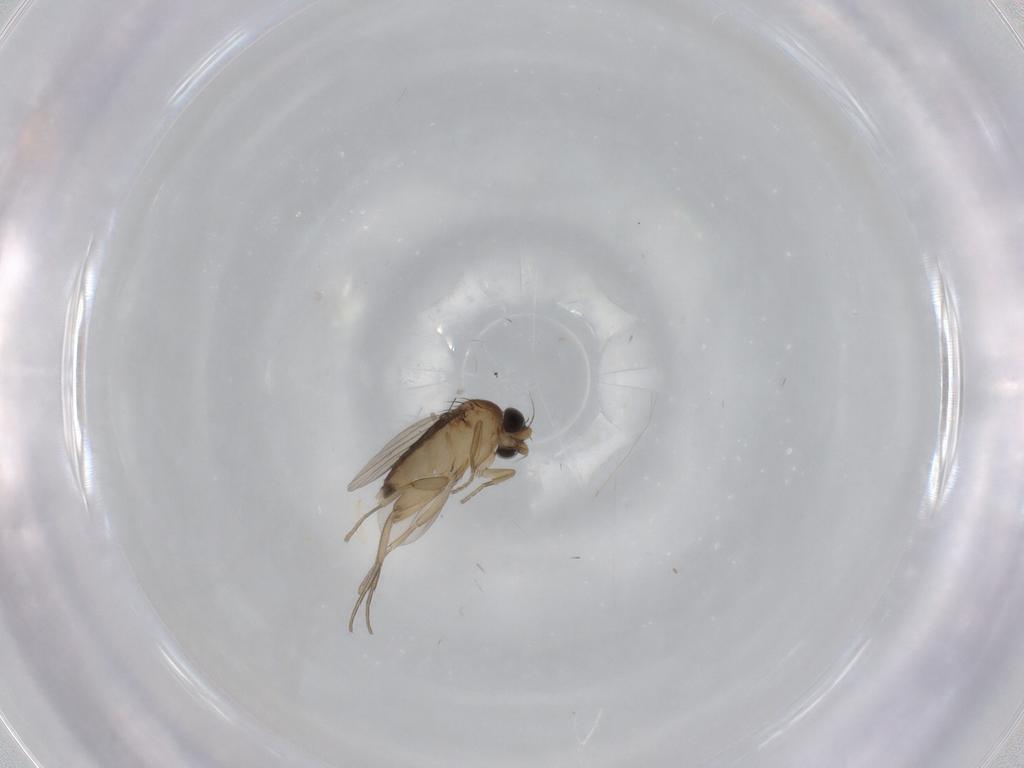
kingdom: Animalia
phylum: Arthropoda
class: Insecta
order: Diptera
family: Phoridae
